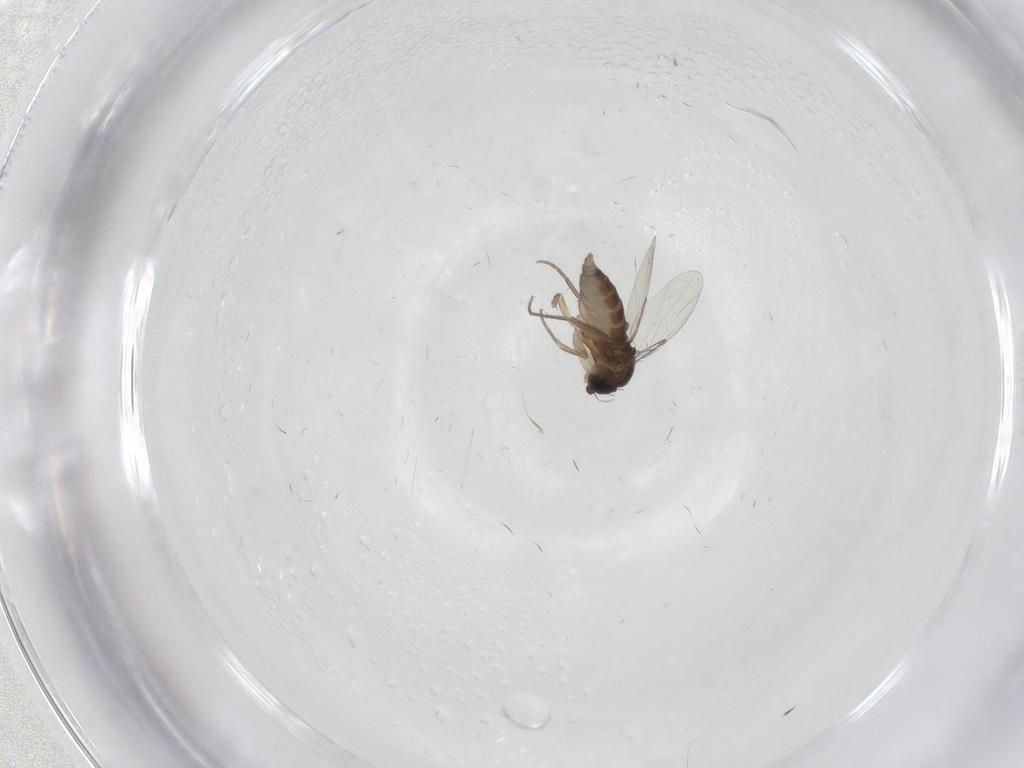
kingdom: Animalia
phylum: Arthropoda
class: Insecta
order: Diptera
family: Phoridae
